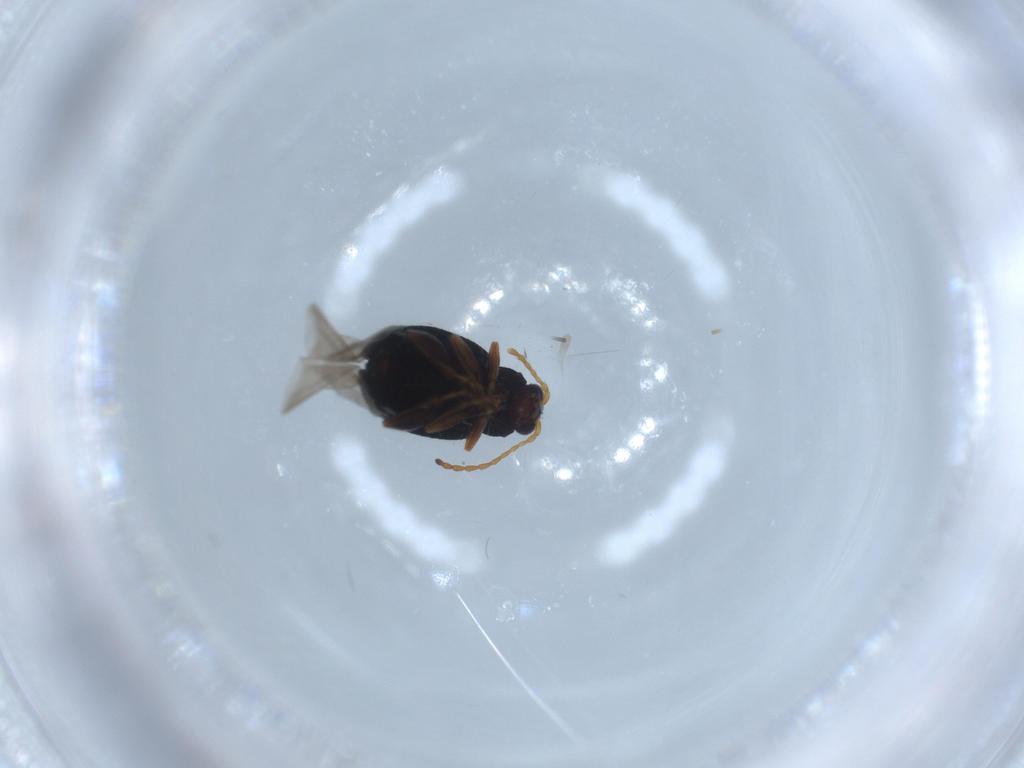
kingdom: Animalia
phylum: Arthropoda
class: Insecta
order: Coleoptera
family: Chrysomelidae
